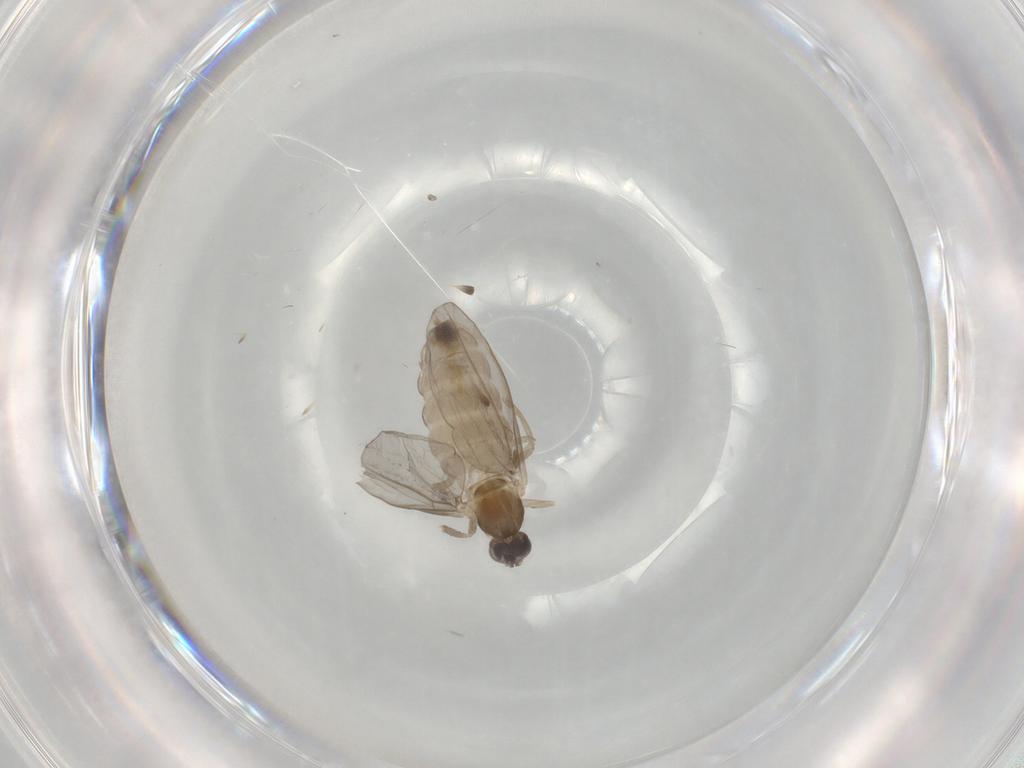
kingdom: Animalia
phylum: Arthropoda
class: Insecta
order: Diptera
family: Cecidomyiidae
